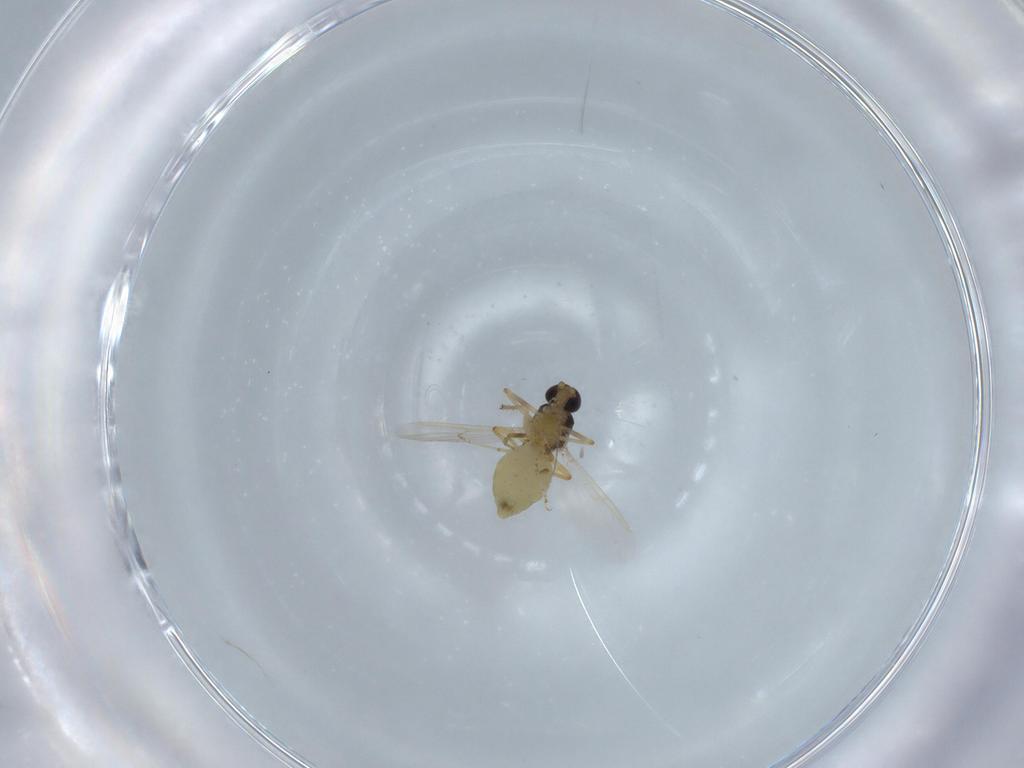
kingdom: Animalia
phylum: Arthropoda
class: Insecta
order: Diptera
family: Ceratopogonidae
